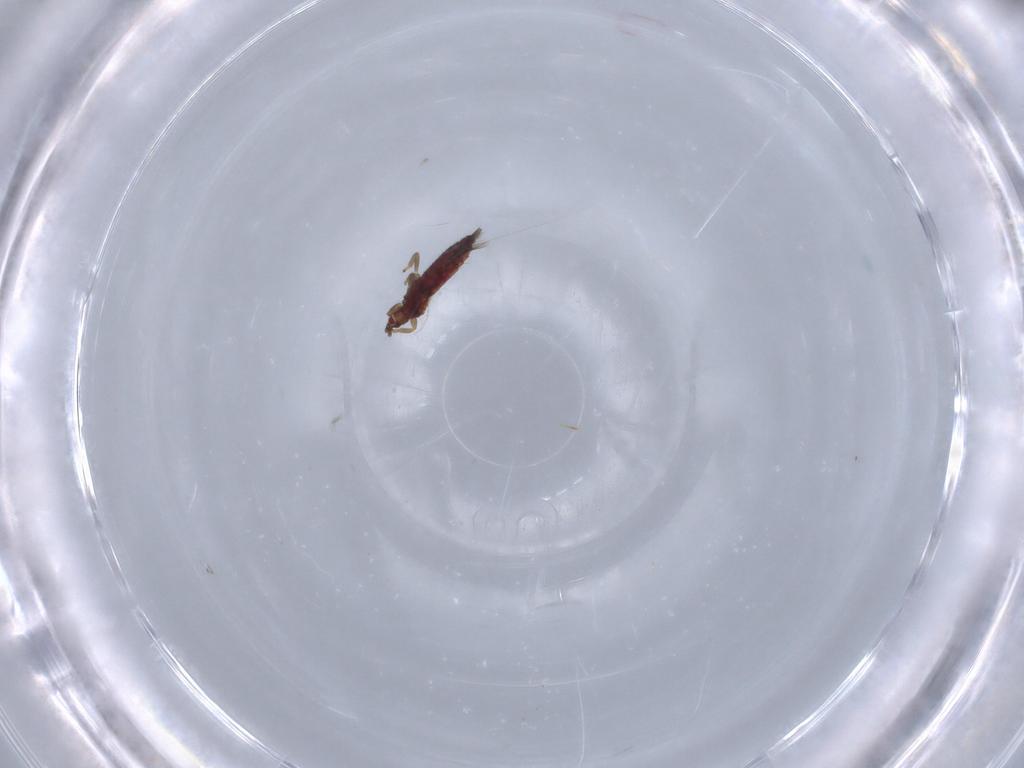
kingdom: Animalia
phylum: Arthropoda
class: Insecta
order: Thysanoptera
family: Phlaeothripidae
